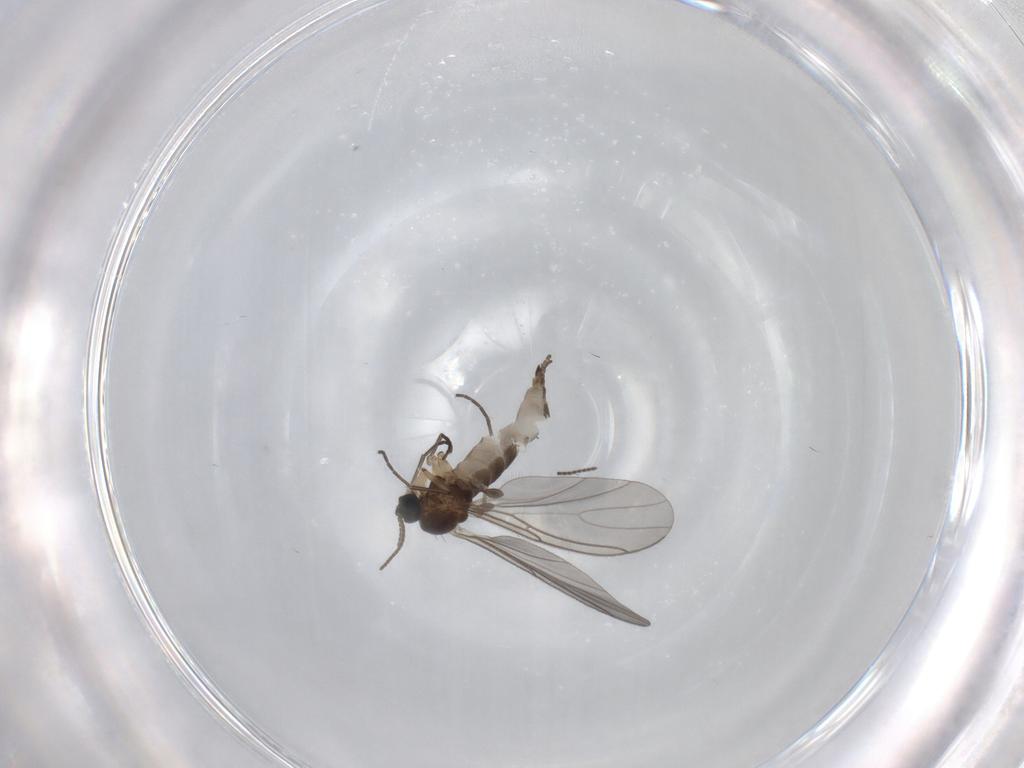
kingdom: Animalia
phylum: Arthropoda
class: Insecta
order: Diptera
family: Sciaridae
